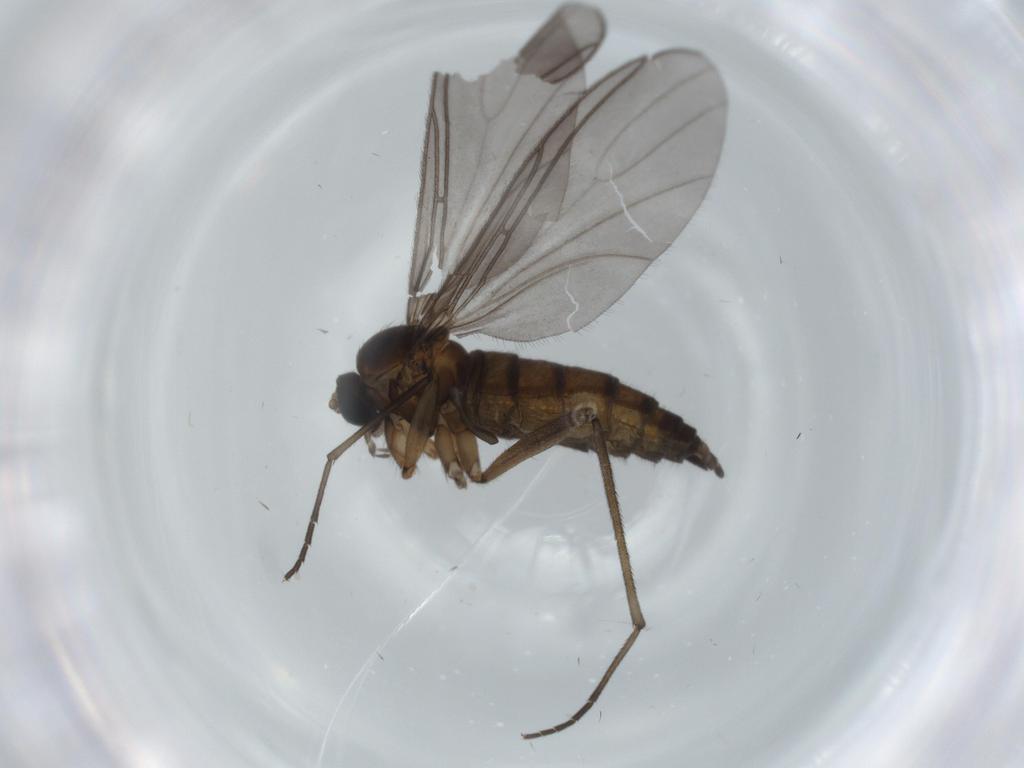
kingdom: Animalia
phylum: Arthropoda
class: Insecta
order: Diptera
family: Sciaridae
